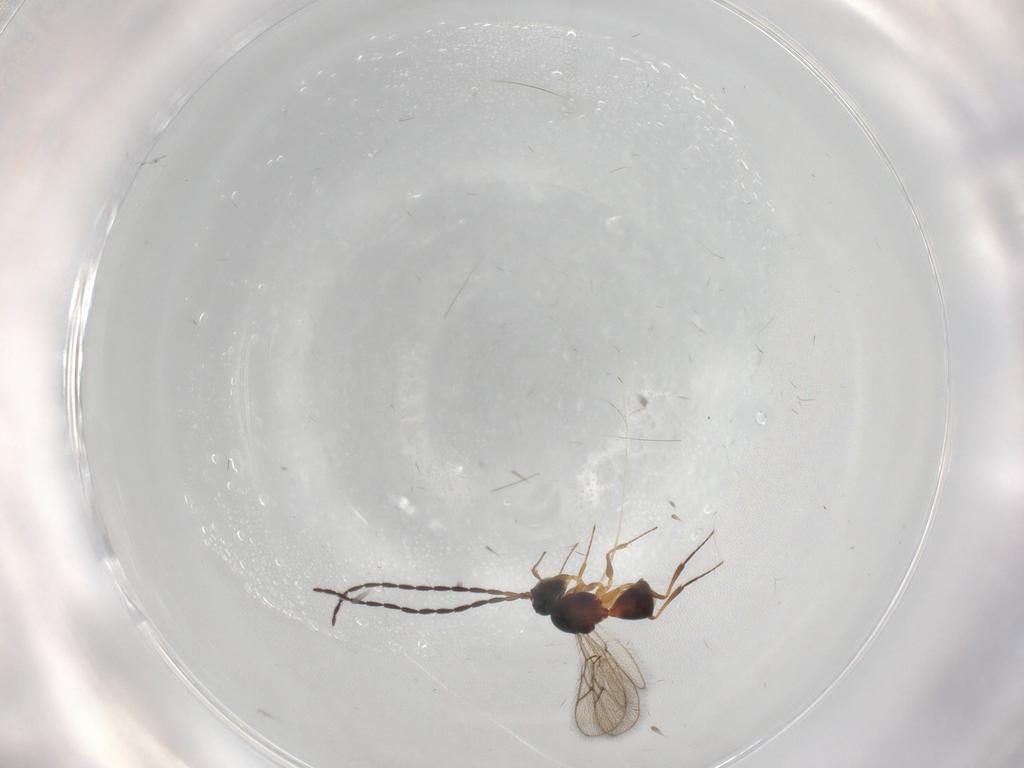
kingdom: Animalia
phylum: Arthropoda
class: Insecta
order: Hymenoptera
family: Figitidae
